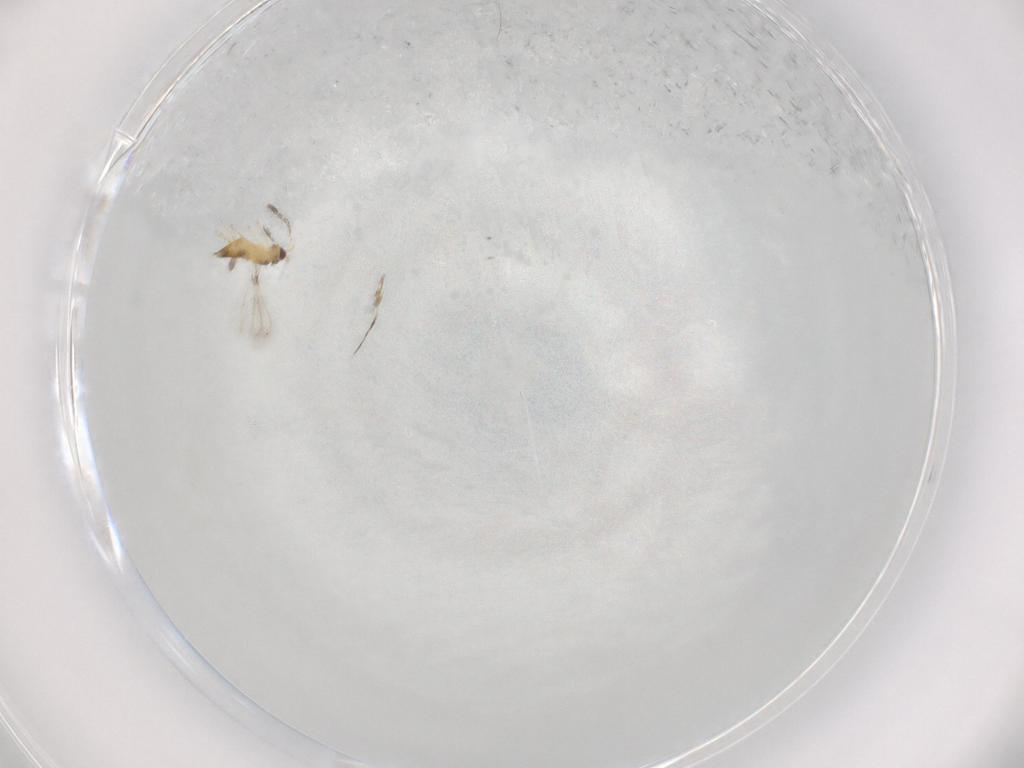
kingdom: Animalia
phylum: Arthropoda
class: Insecta
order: Hymenoptera
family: Mymaridae
